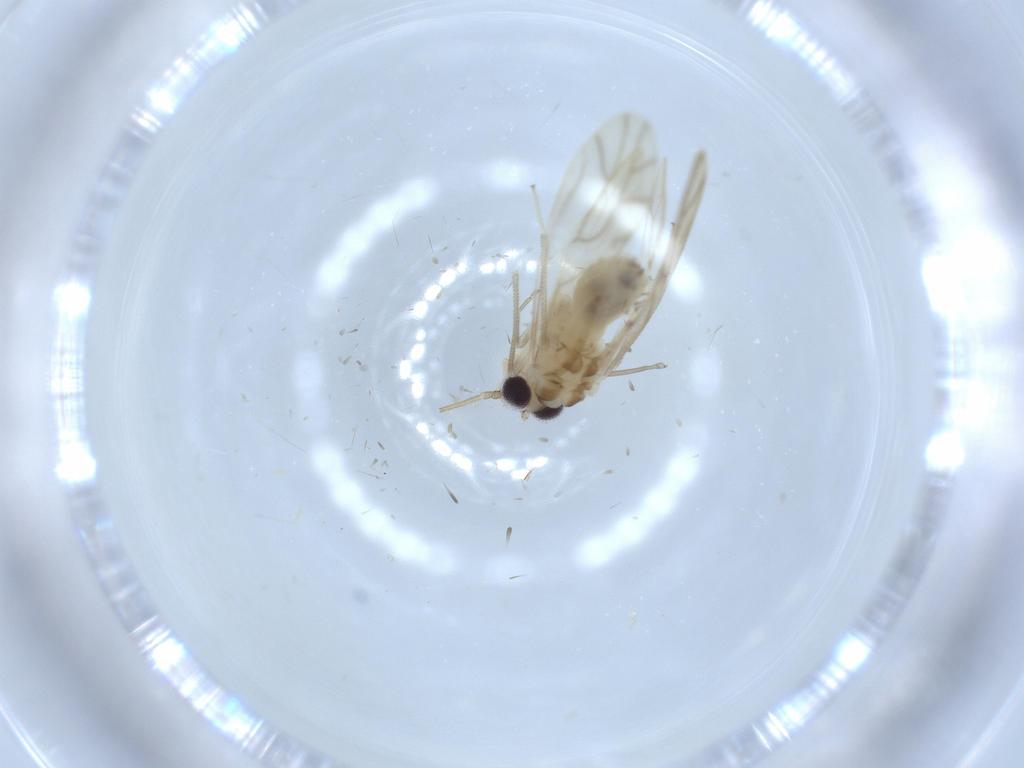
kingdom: Animalia
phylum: Arthropoda
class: Insecta
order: Psocodea
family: Caeciliusidae
